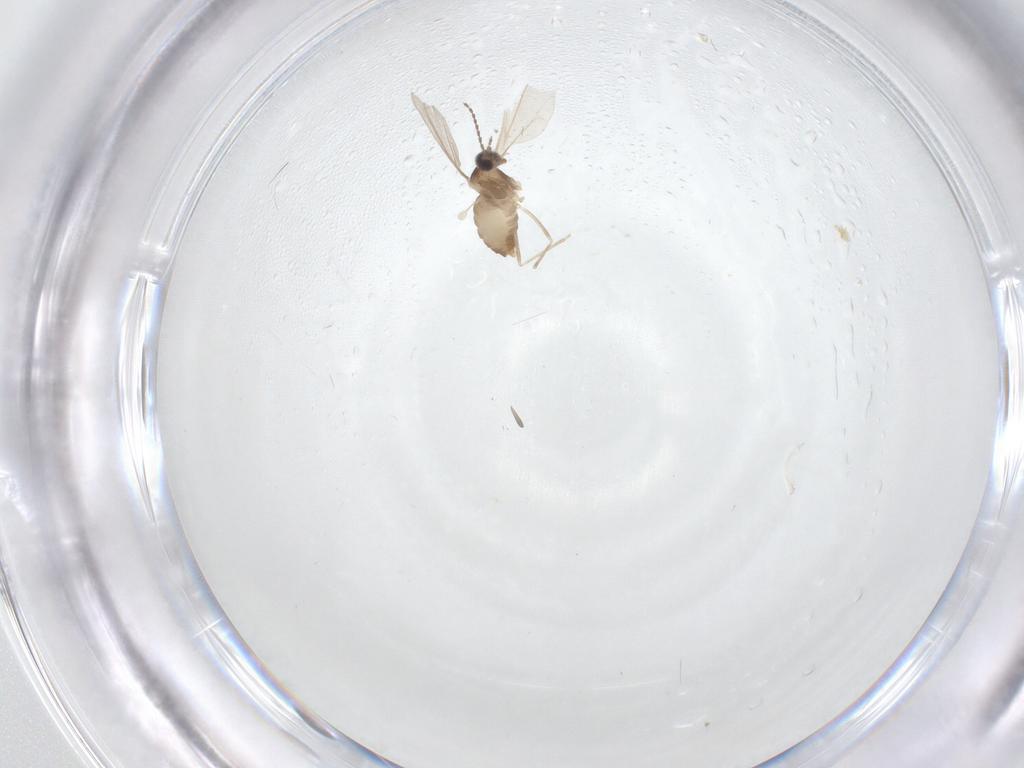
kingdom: Animalia
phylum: Arthropoda
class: Insecta
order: Diptera
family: Cecidomyiidae
